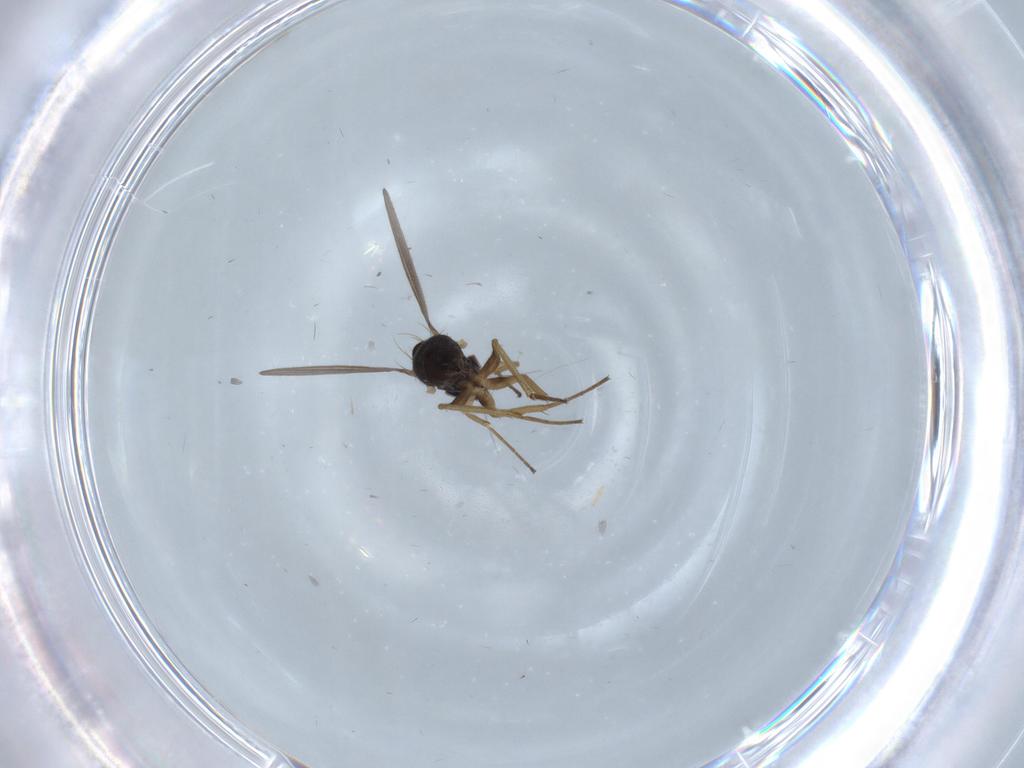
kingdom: Animalia
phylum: Arthropoda
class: Insecta
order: Diptera
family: Dolichopodidae
